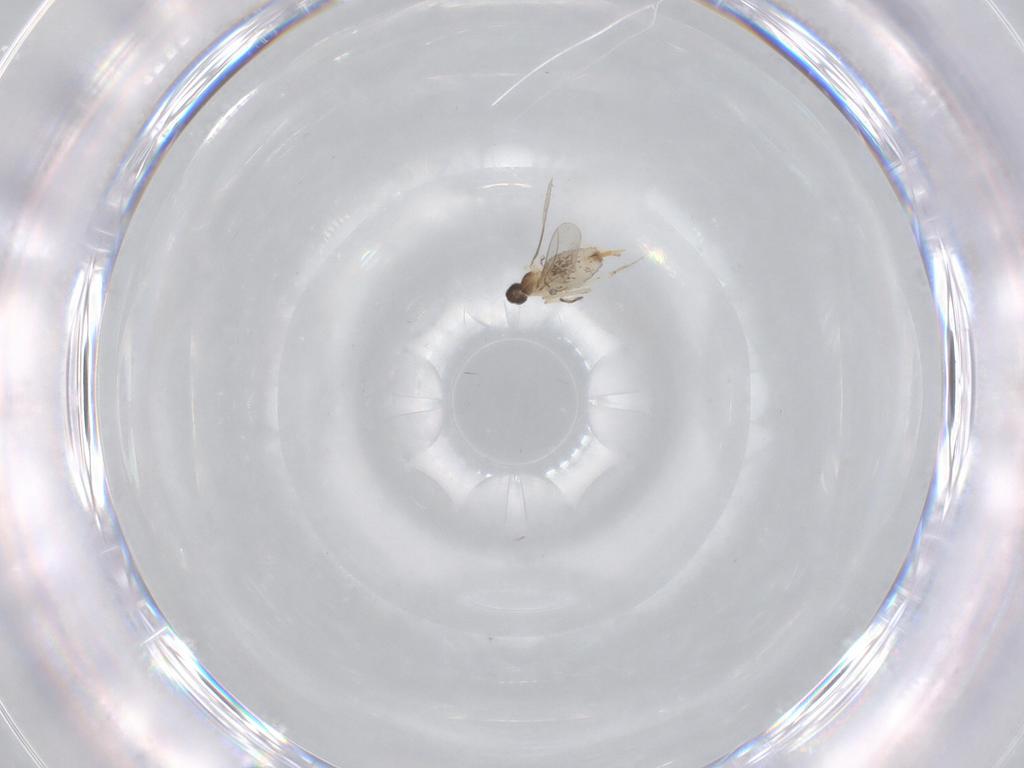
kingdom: Animalia
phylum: Arthropoda
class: Insecta
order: Diptera
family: Cecidomyiidae
